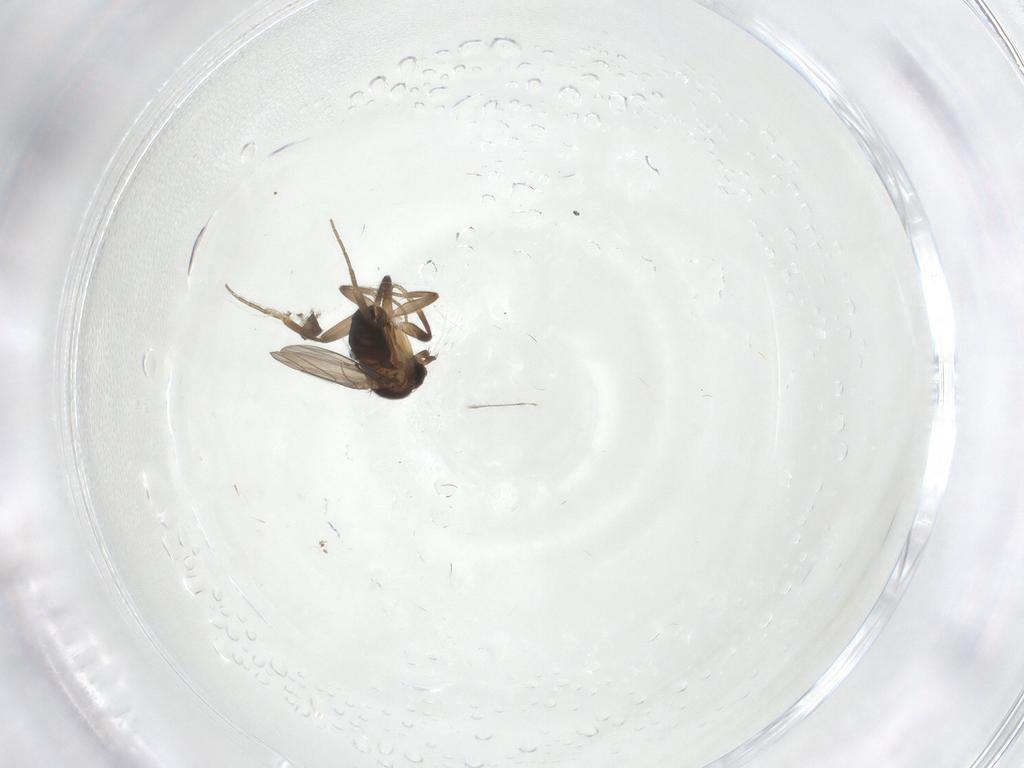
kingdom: Animalia
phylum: Arthropoda
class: Insecta
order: Diptera
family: Phoridae
